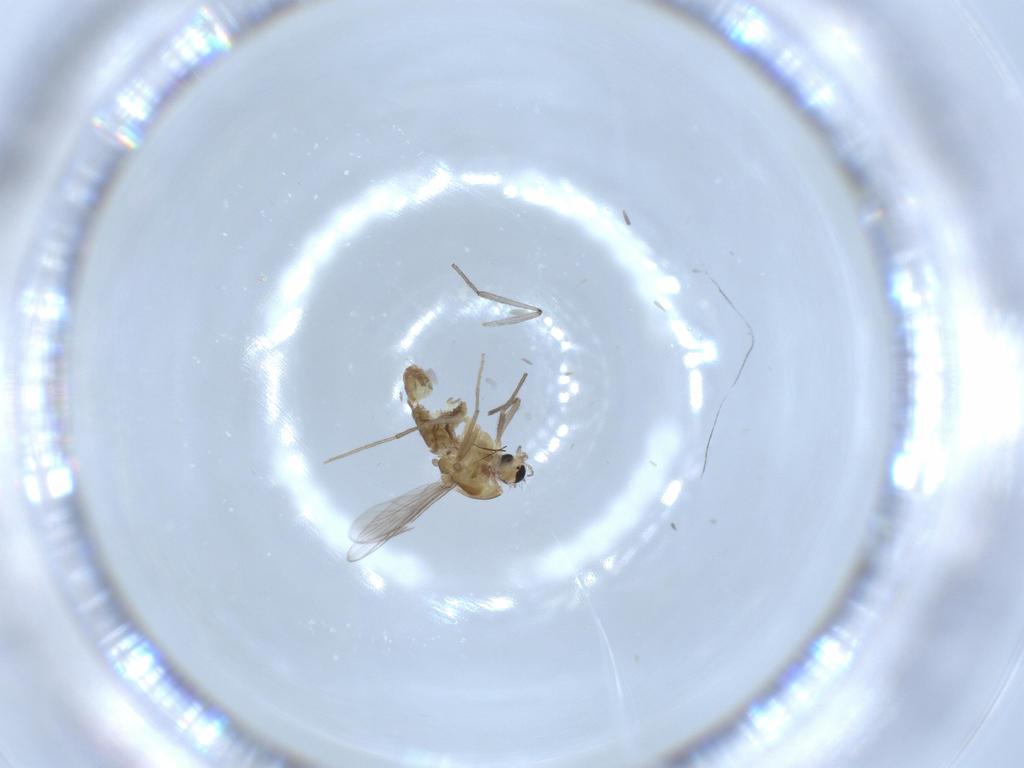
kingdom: Animalia
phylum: Arthropoda
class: Insecta
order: Diptera
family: Chironomidae
